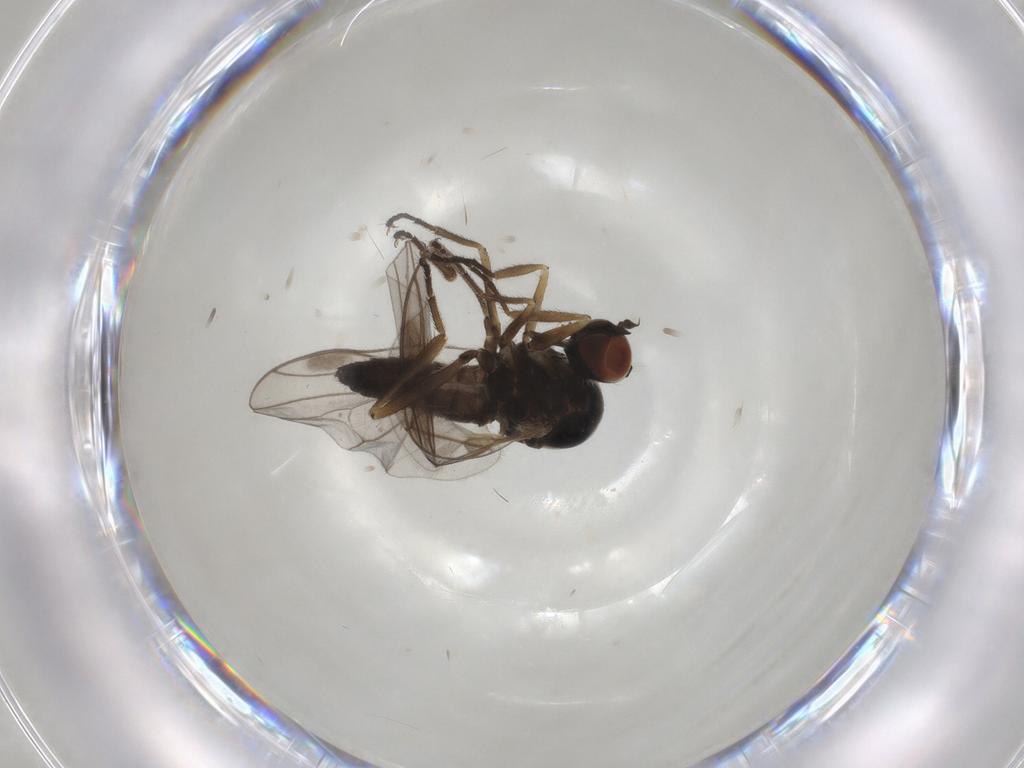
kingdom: Animalia
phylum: Arthropoda
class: Insecta
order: Diptera
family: Hybotidae
